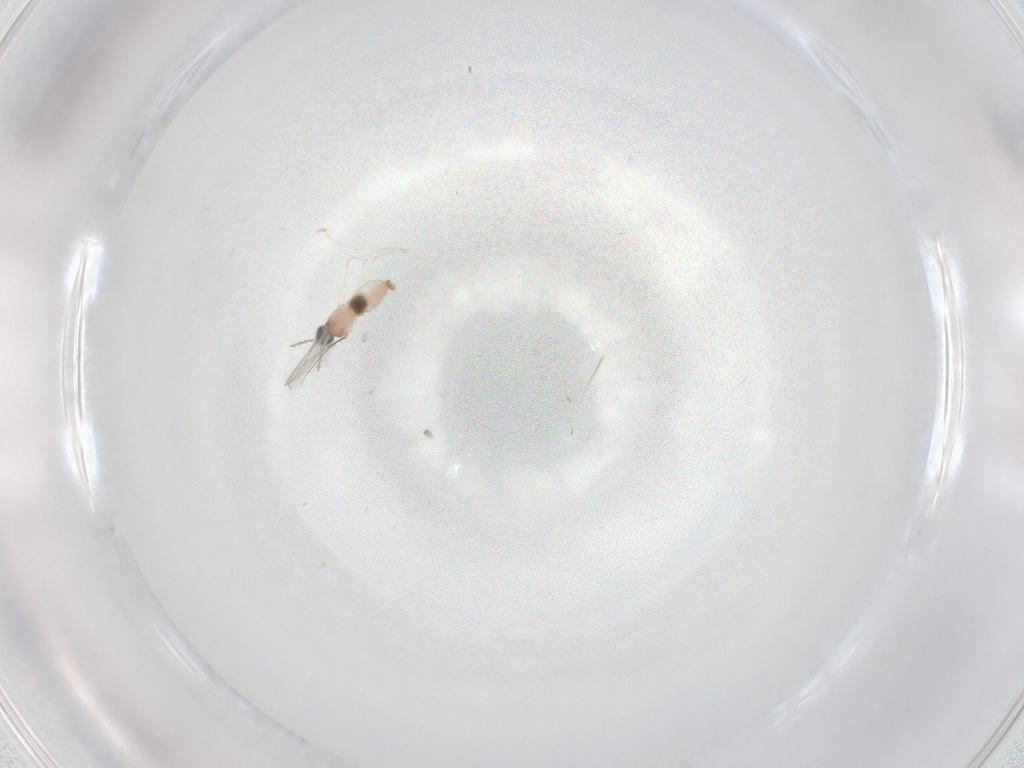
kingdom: Animalia
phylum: Arthropoda
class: Insecta
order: Diptera
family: Cecidomyiidae
